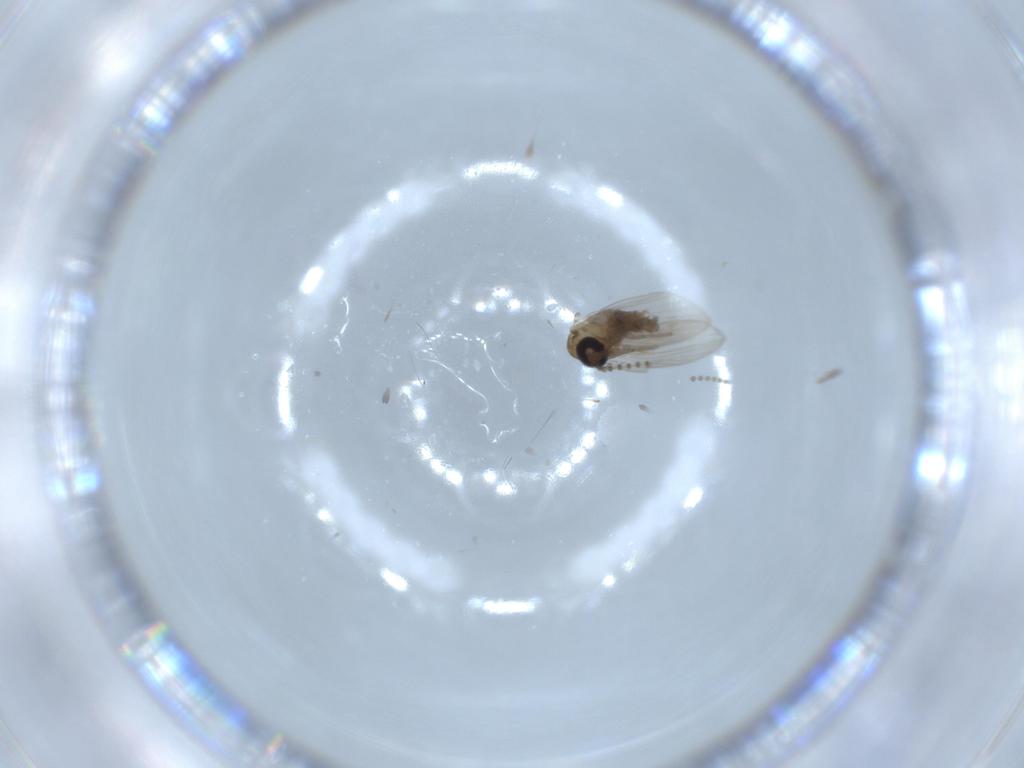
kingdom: Animalia
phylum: Arthropoda
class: Insecta
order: Diptera
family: Psychodidae
